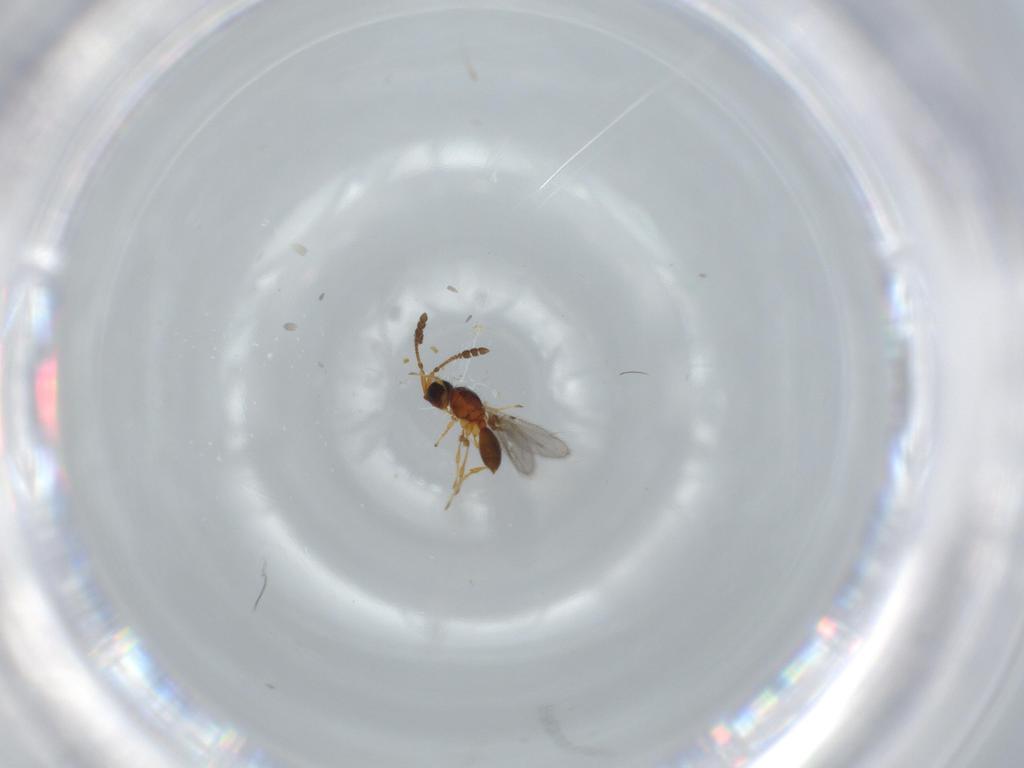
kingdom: Animalia
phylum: Arthropoda
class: Insecta
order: Hymenoptera
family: Diapriidae
